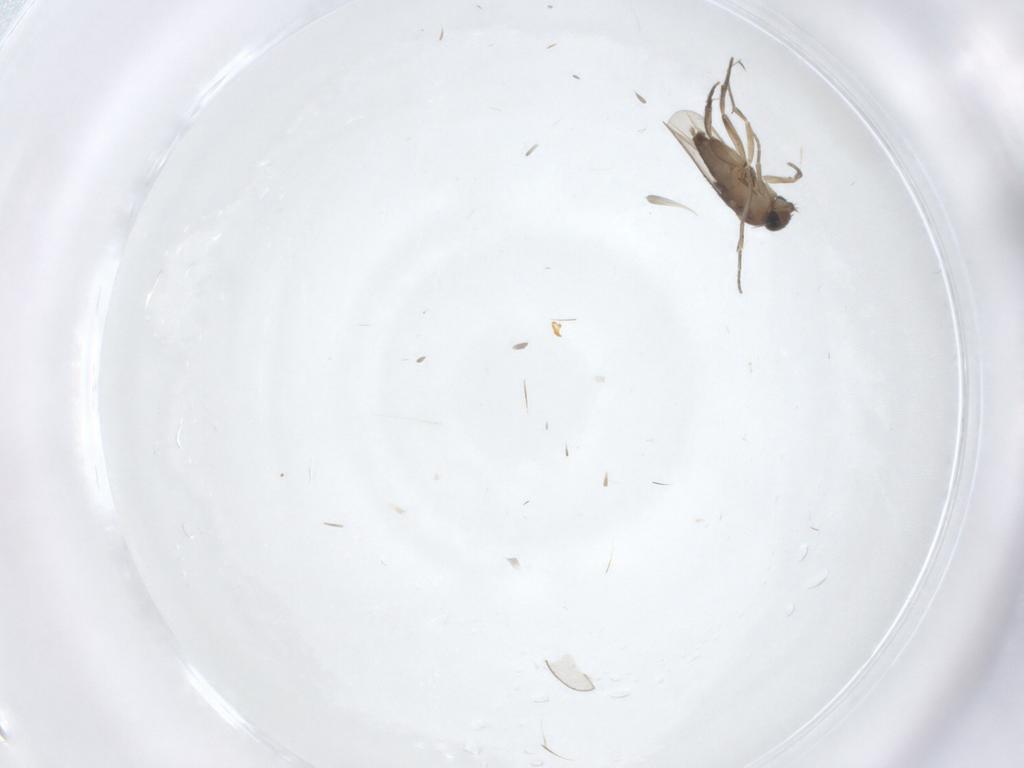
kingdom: Animalia
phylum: Arthropoda
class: Insecta
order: Diptera
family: Psychodidae
